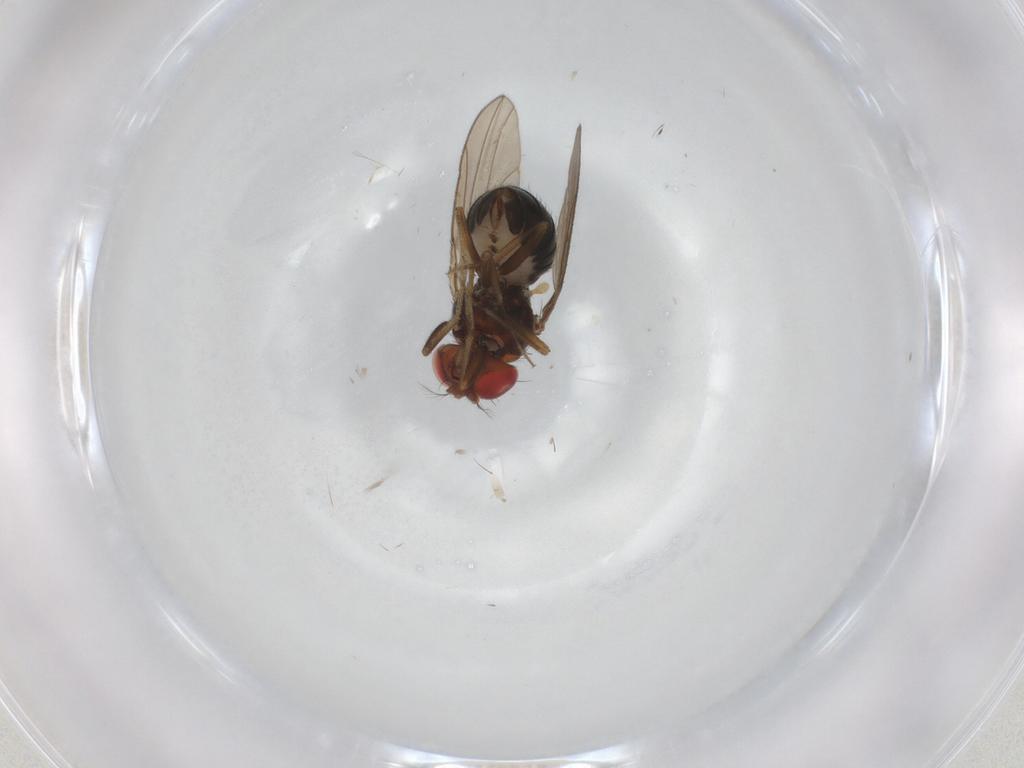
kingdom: Animalia
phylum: Arthropoda
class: Insecta
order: Diptera
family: Drosophilidae
